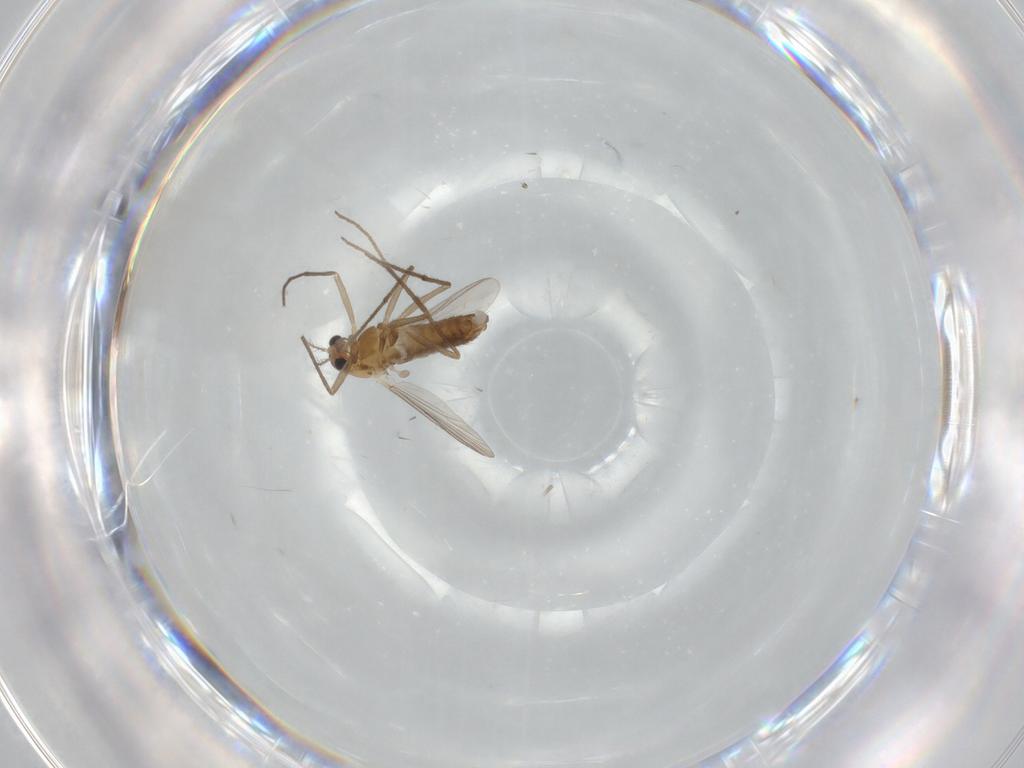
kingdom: Animalia
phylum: Arthropoda
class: Insecta
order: Diptera
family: Chironomidae
